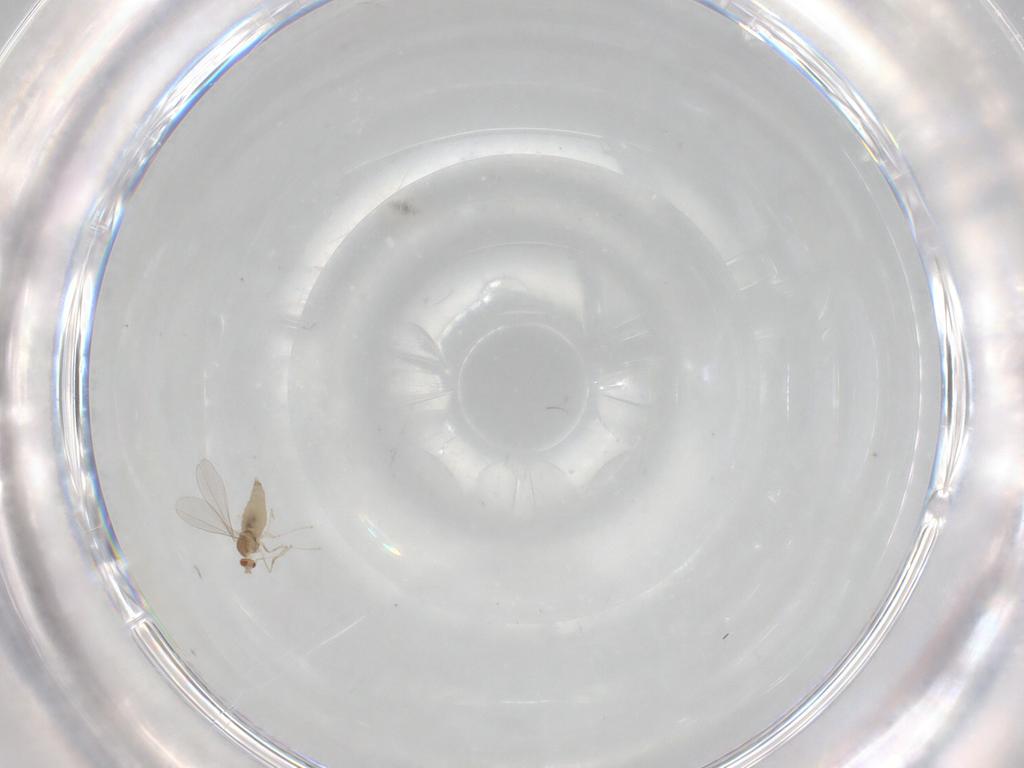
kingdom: Animalia
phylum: Arthropoda
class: Insecta
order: Diptera
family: Cecidomyiidae
